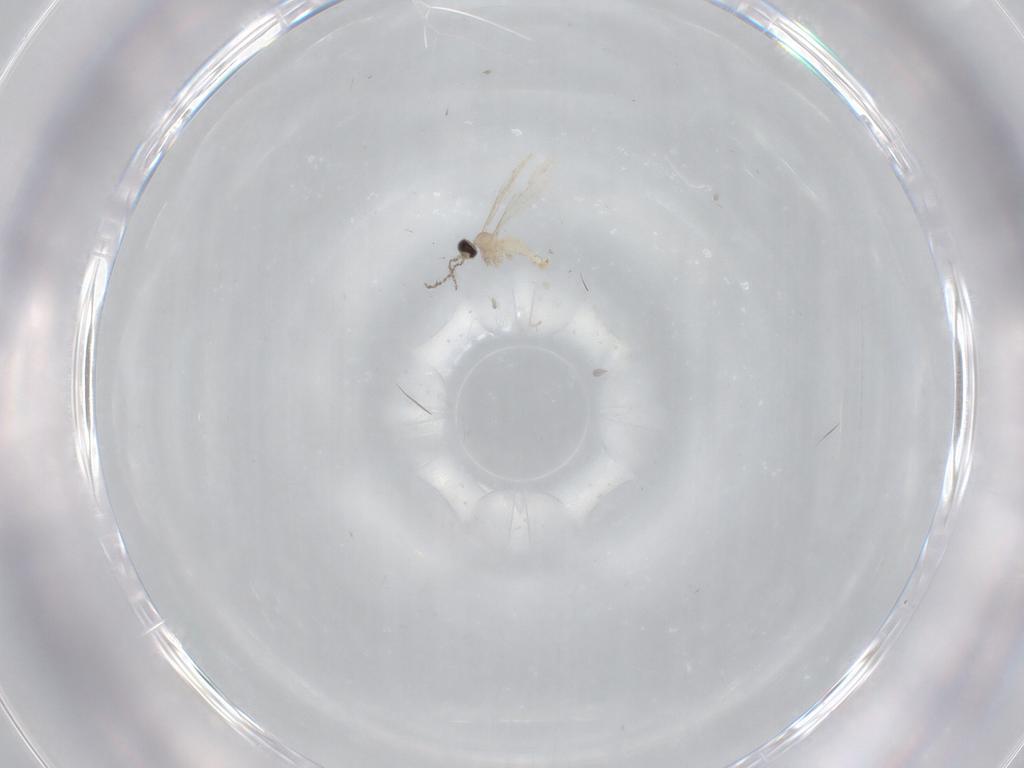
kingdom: Animalia
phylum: Arthropoda
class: Insecta
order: Diptera
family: Cecidomyiidae
